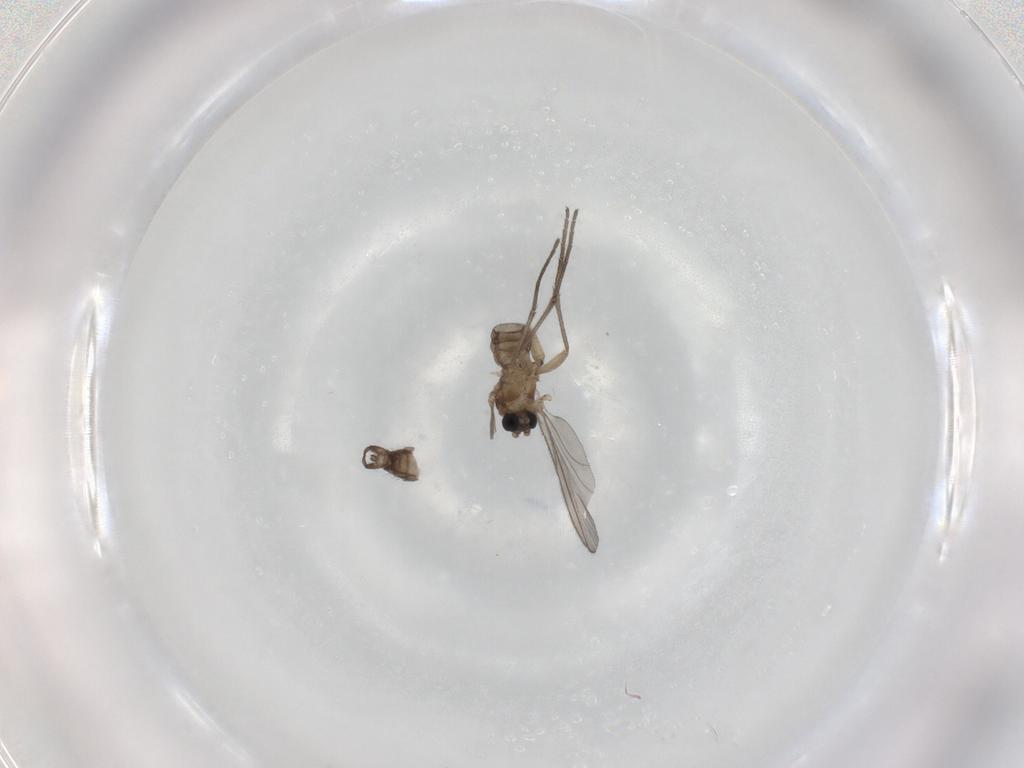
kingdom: Animalia
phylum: Arthropoda
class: Insecta
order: Diptera
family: Sciaridae
